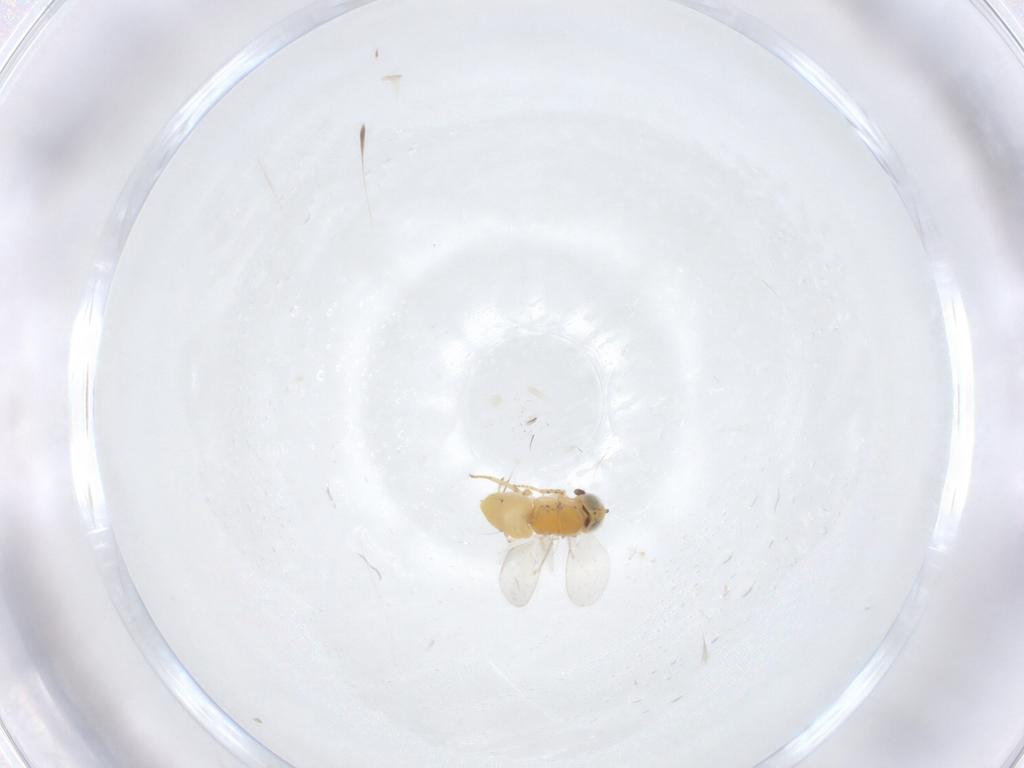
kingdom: Animalia
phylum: Arthropoda
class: Insecta
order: Hymenoptera
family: Encyrtidae
